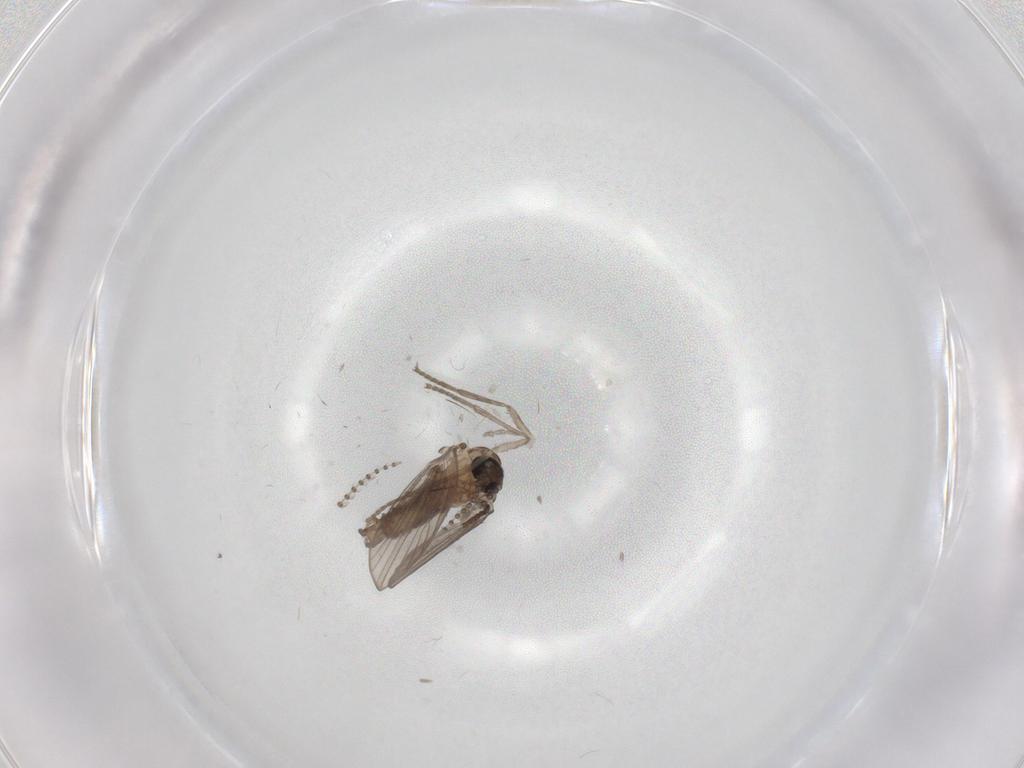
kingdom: Animalia
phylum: Arthropoda
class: Insecta
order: Diptera
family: Psychodidae
